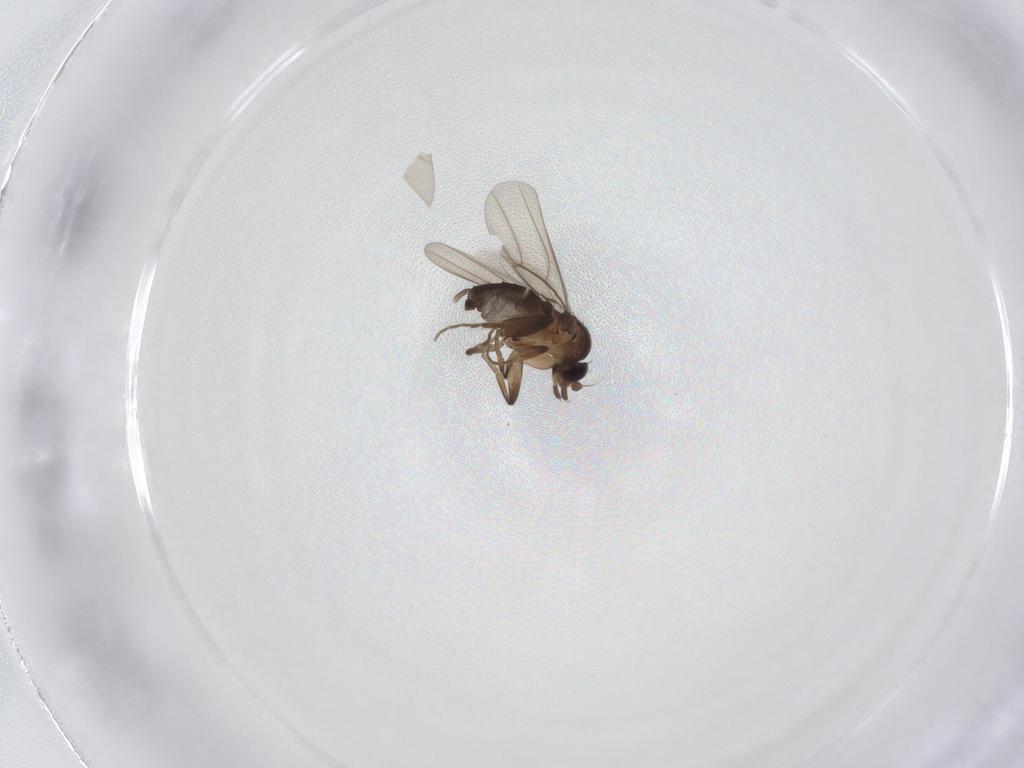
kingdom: Animalia
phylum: Arthropoda
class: Insecta
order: Diptera
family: Phoridae
